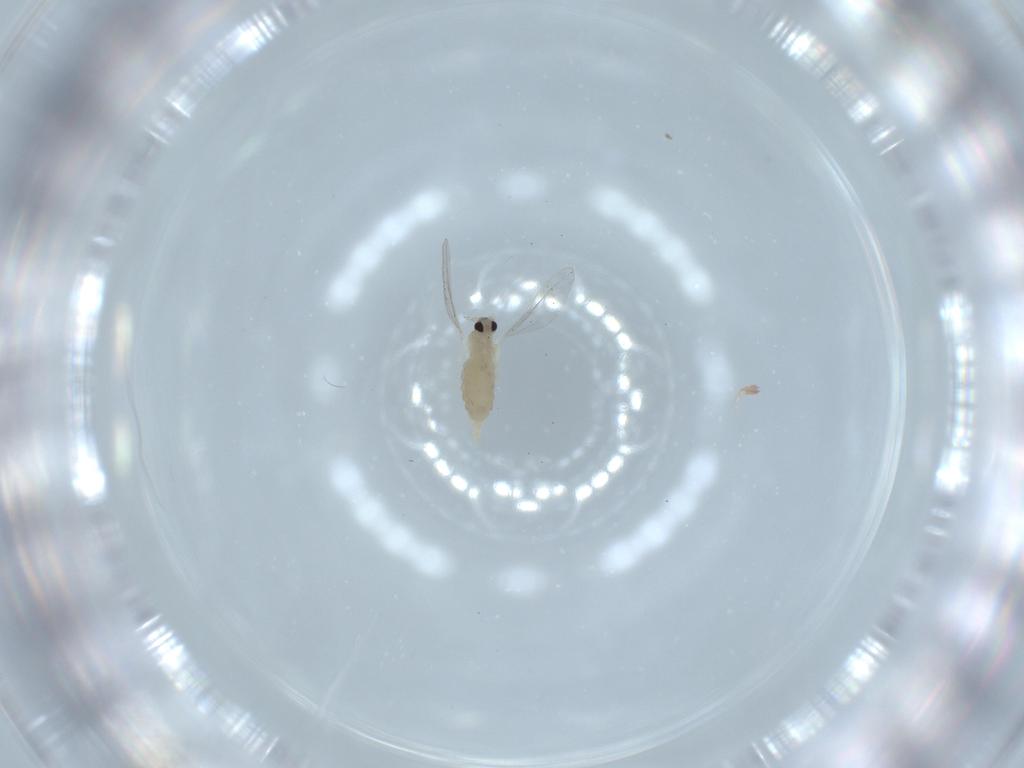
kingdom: Animalia
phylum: Arthropoda
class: Insecta
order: Diptera
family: Cecidomyiidae
